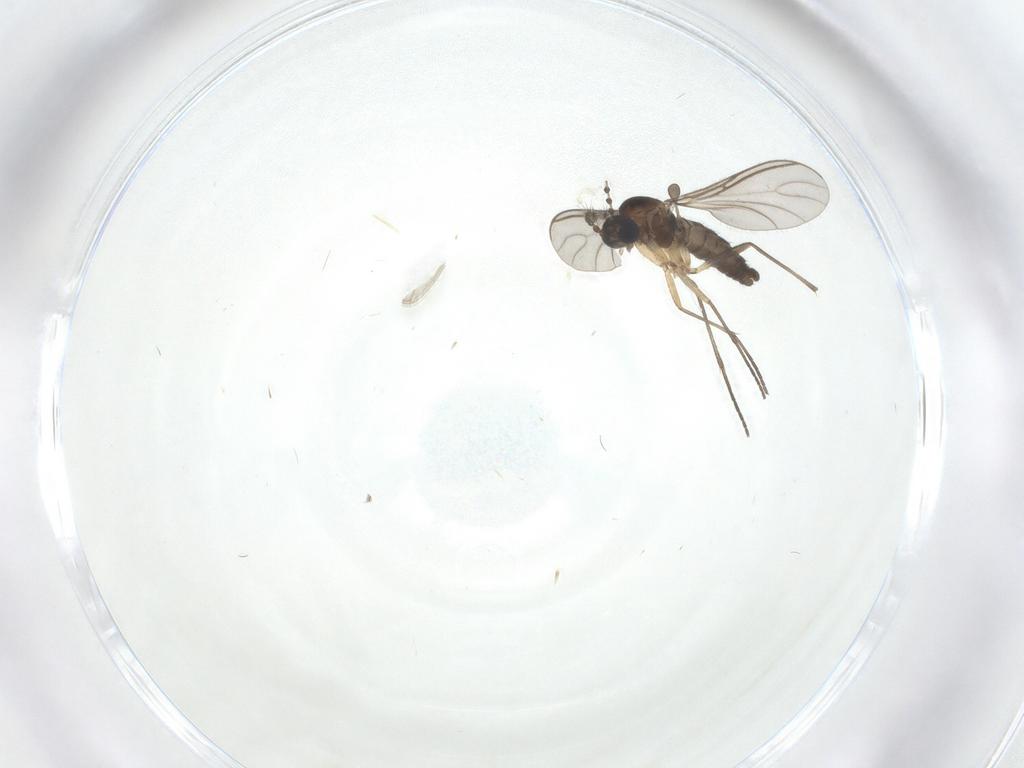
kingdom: Animalia
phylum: Arthropoda
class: Insecta
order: Diptera
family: Sciaridae
